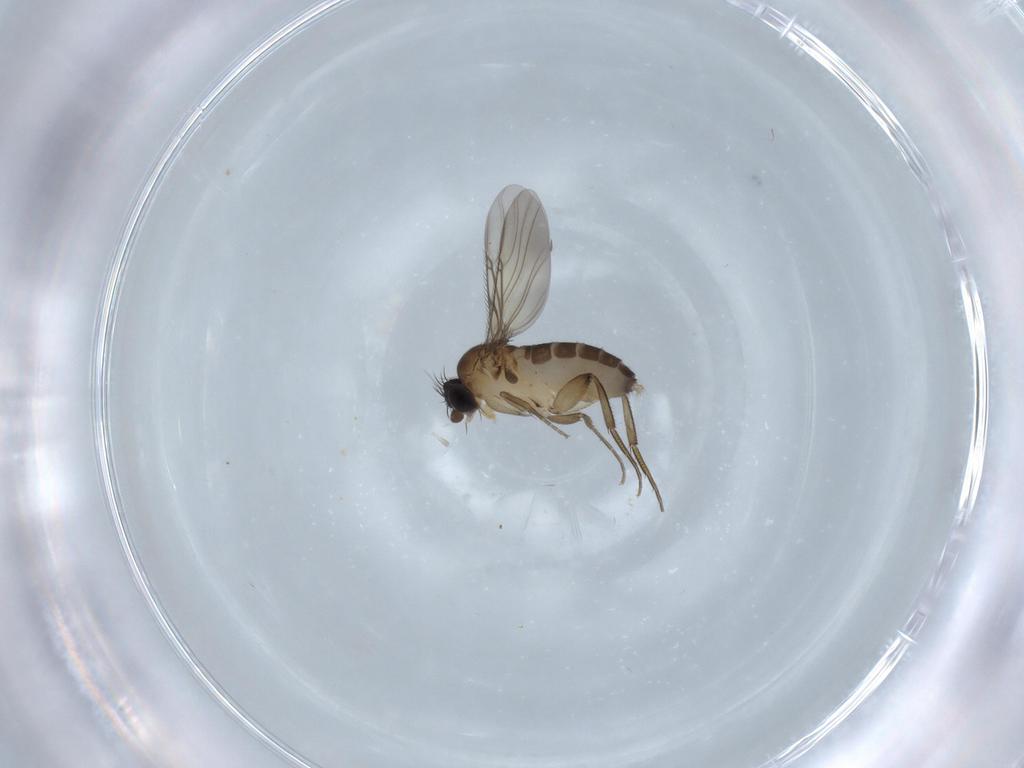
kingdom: Animalia
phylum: Arthropoda
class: Insecta
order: Diptera
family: Phoridae
